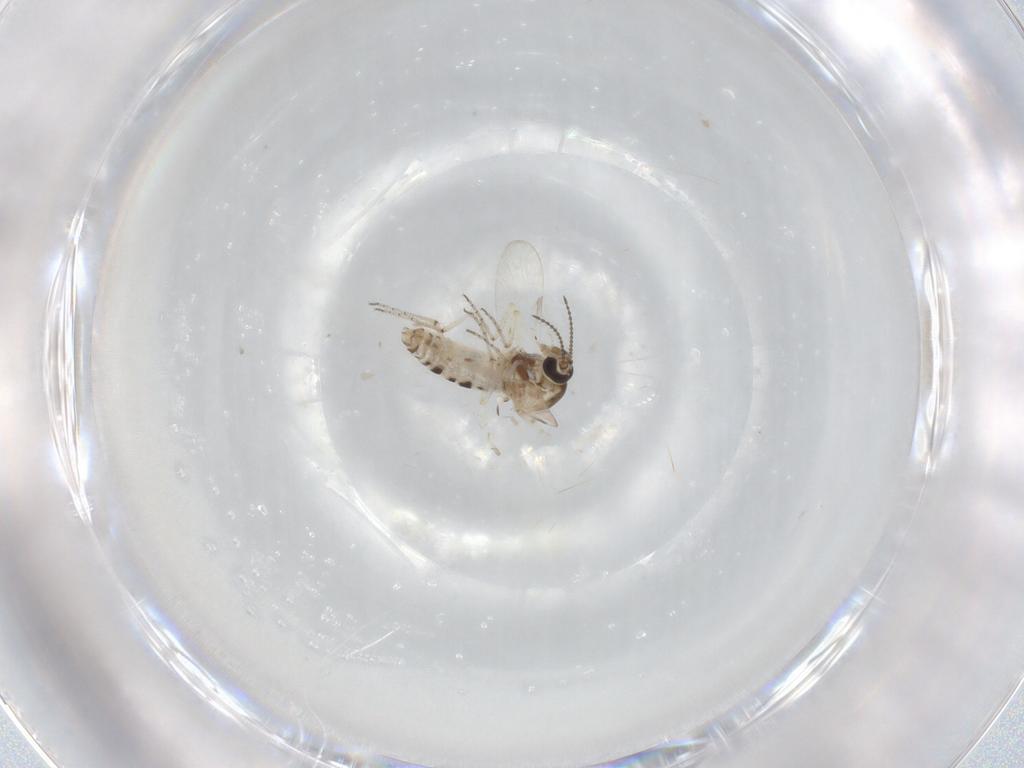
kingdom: Animalia
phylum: Arthropoda
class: Insecta
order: Diptera
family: Ceratopogonidae
